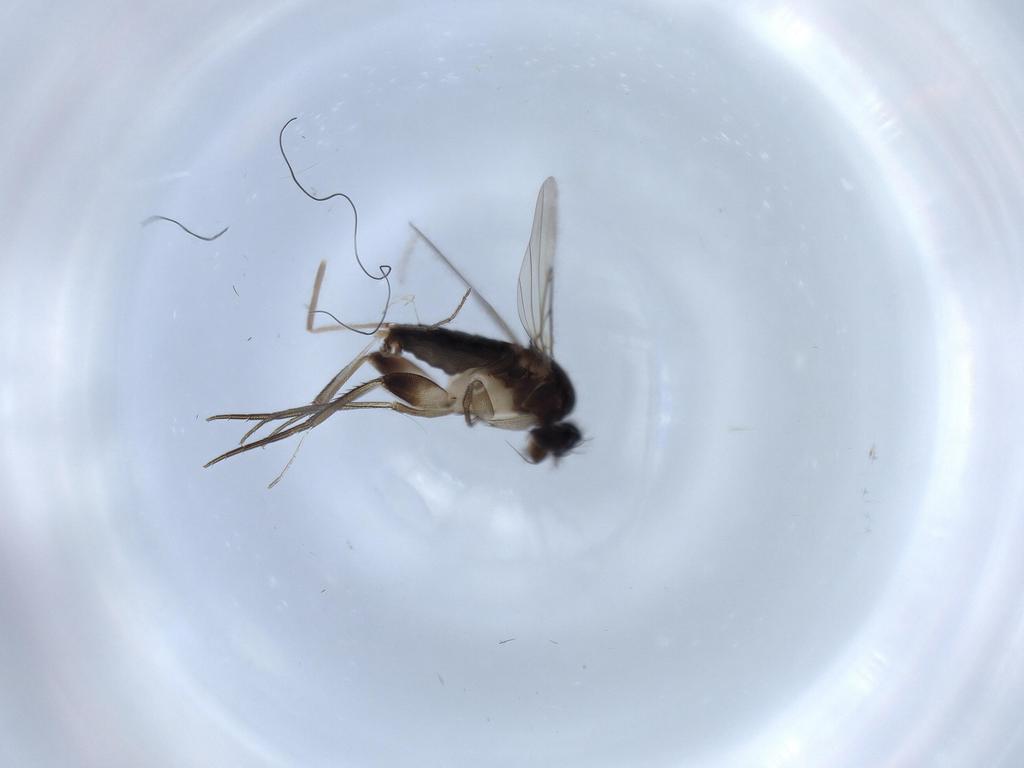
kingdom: Animalia
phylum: Arthropoda
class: Insecta
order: Diptera
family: Phoridae
